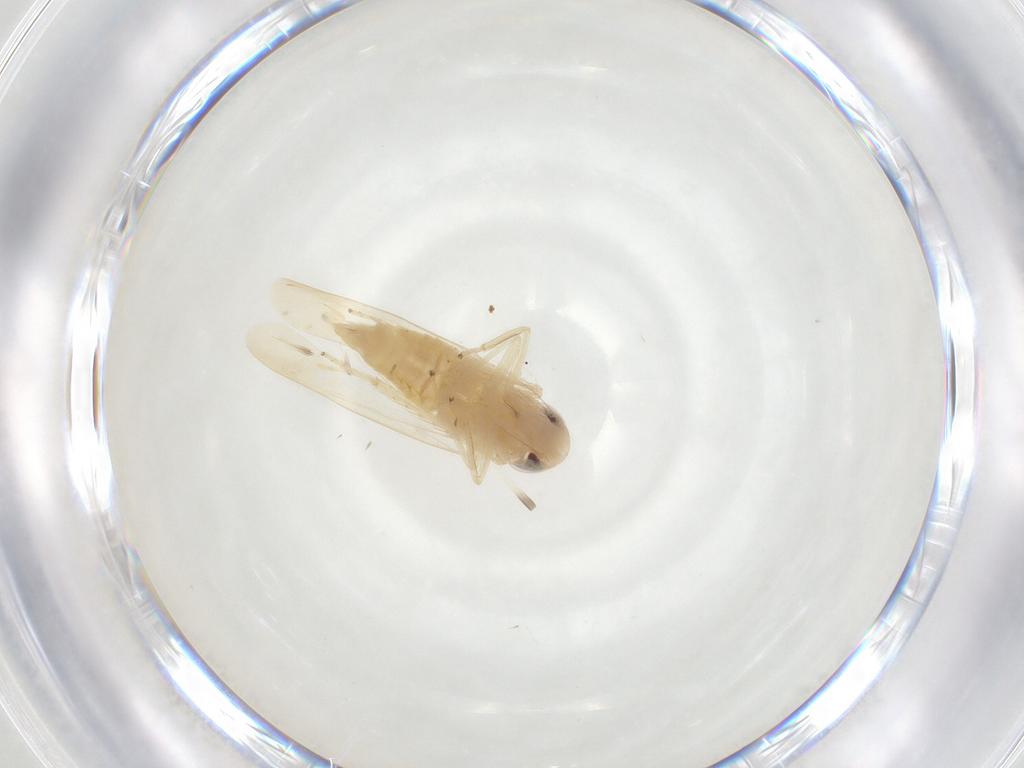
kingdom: Animalia
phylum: Arthropoda
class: Insecta
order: Hemiptera
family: Cicadellidae
